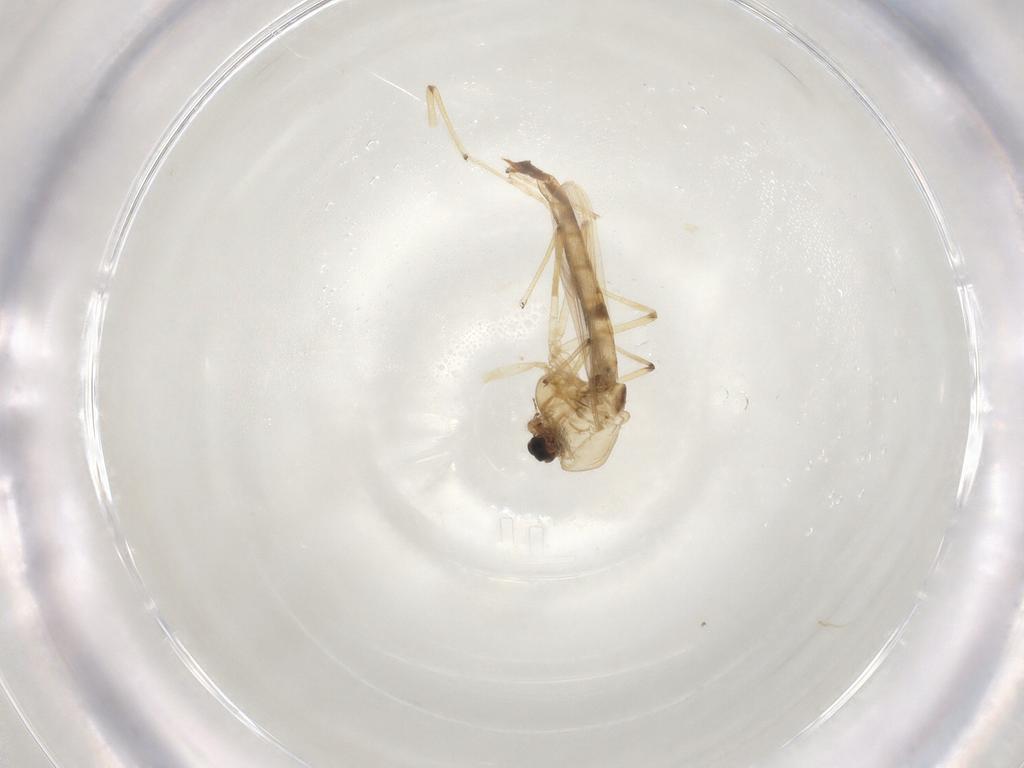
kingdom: Animalia
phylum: Arthropoda
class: Insecta
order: Diptera
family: Chironomidae
